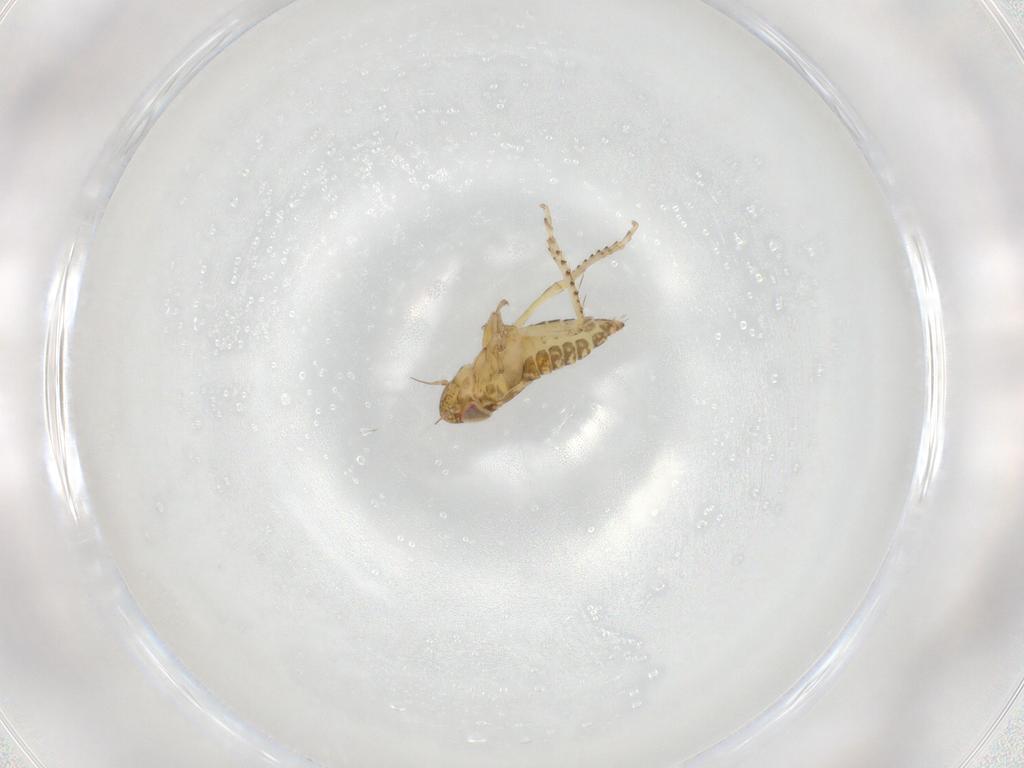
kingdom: Animalia
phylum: Arthropoda
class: Insecta
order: Hemiptera
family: Cicadellidae
